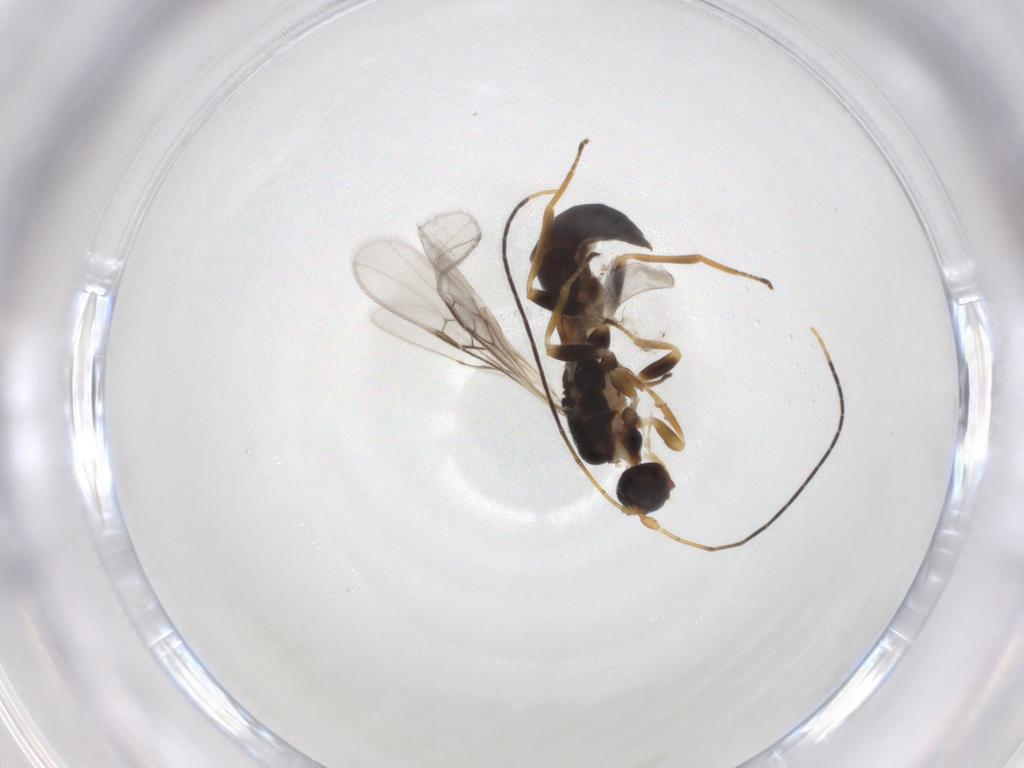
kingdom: Animalia
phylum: Arthropoda
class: Insecta
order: Hymenoptera
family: Braconidae
